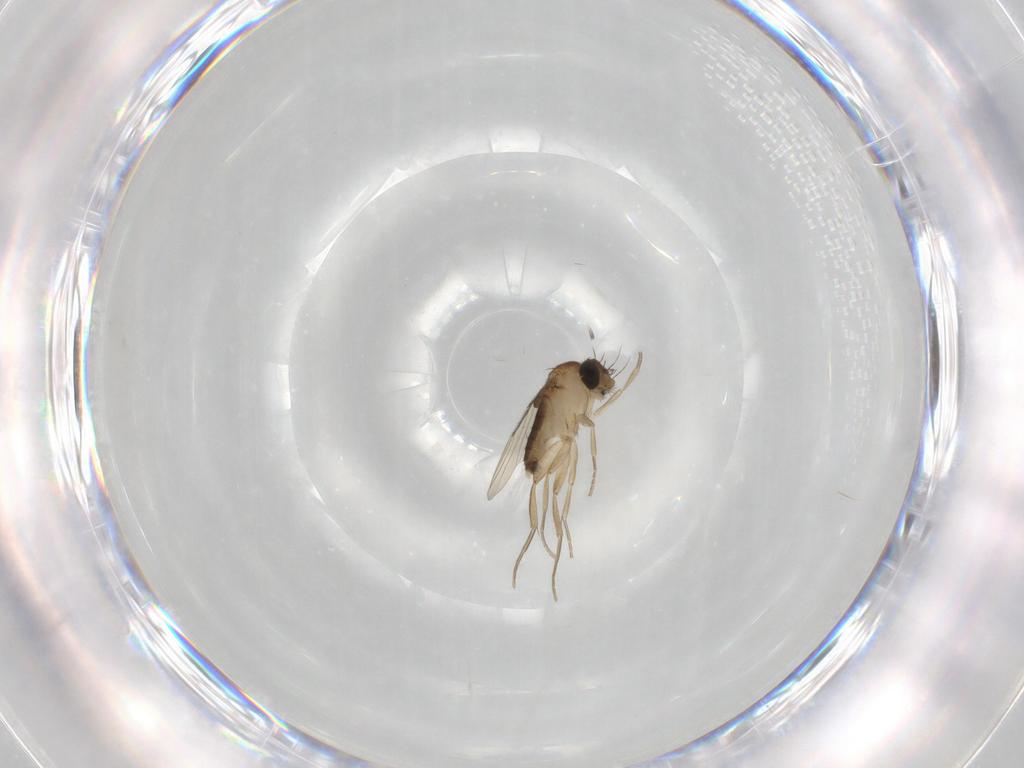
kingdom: Animalia
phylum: Arthropoda
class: Insecta
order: Diptera
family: Phoridae
